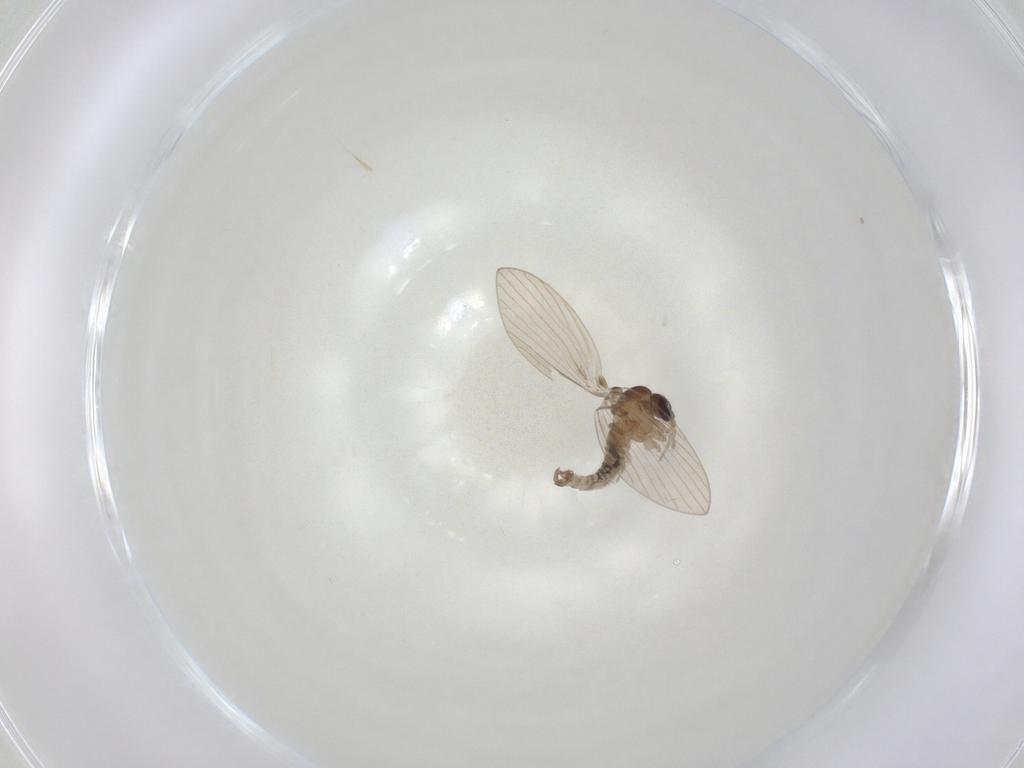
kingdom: Animalia
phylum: Arthropoda
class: Insecta
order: Diptera
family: Psychodidae
